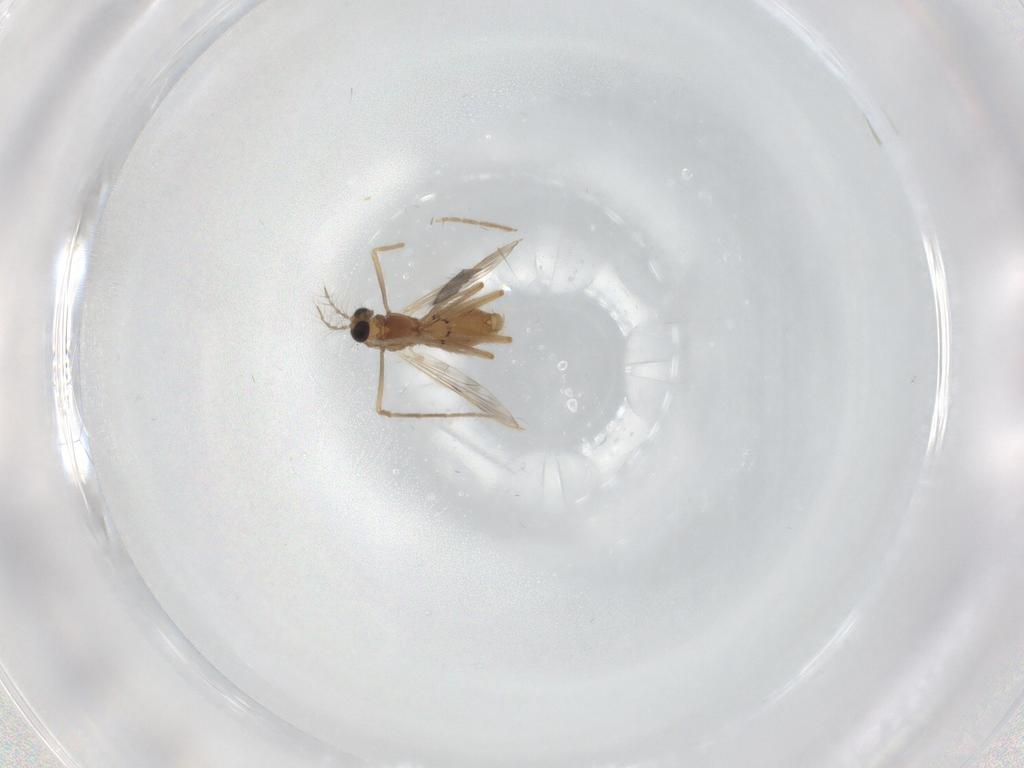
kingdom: Animalia
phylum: Arthropoda
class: Insecta
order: Diptera
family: Chironomidae
